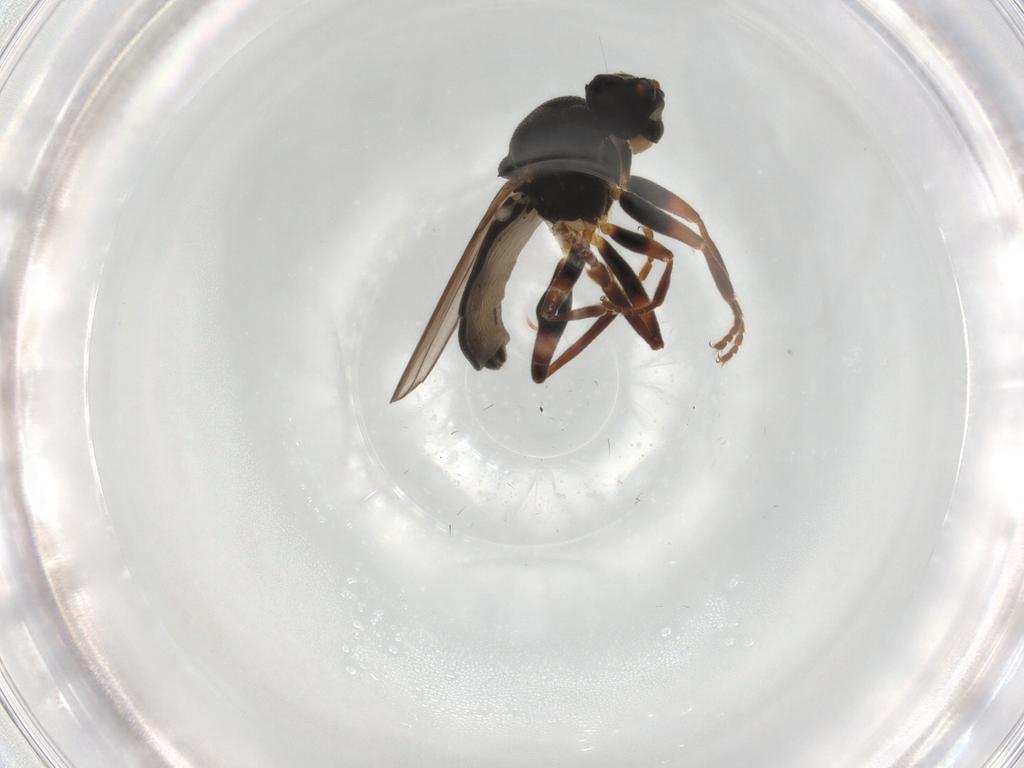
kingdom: Animalia
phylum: Arthropoda
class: Insecta
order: Diptera
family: Sphaeroceridae
